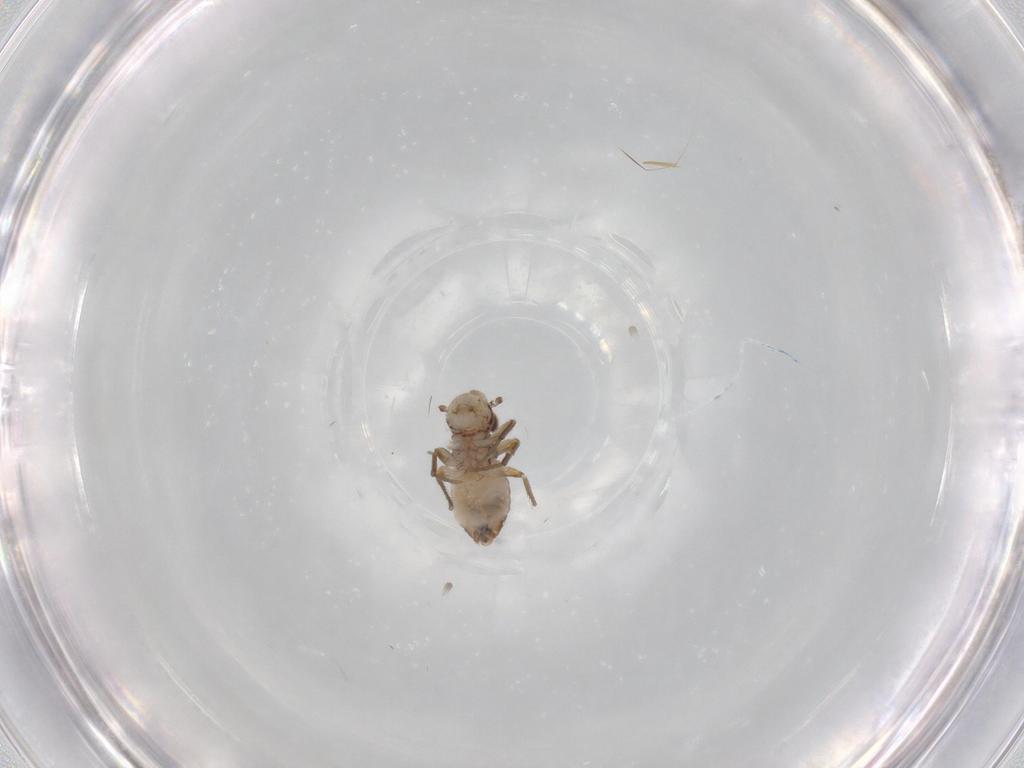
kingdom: Animalia
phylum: Arthropoda
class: Insecta
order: Psocodea
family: Mesopsocidae
